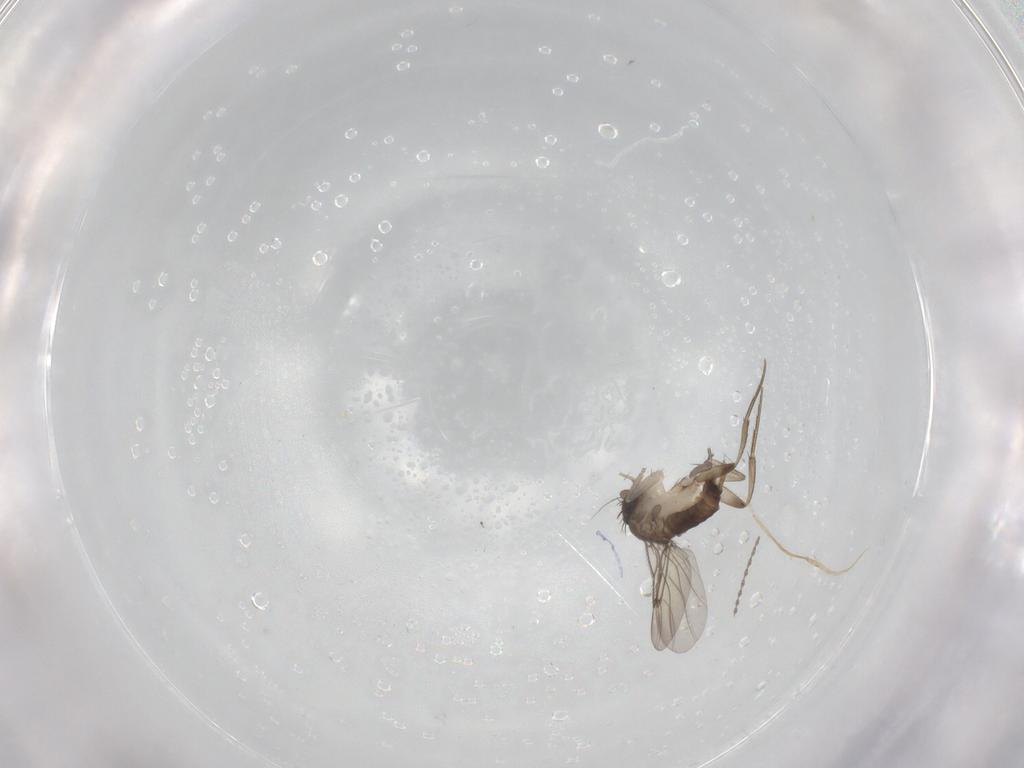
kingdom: Animalia
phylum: Arthropoda
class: Insecta
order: Diptera
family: Phoridae
